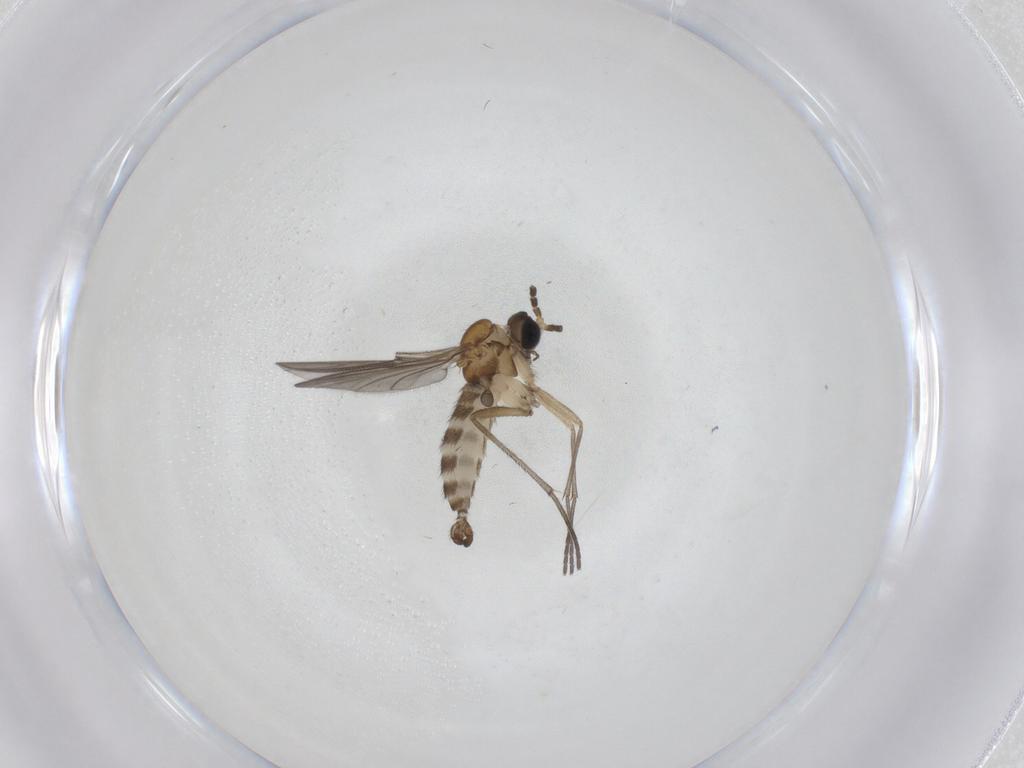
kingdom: Animalia
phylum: Arthropoda
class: Insecta
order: Diptera
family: Sciaridae
